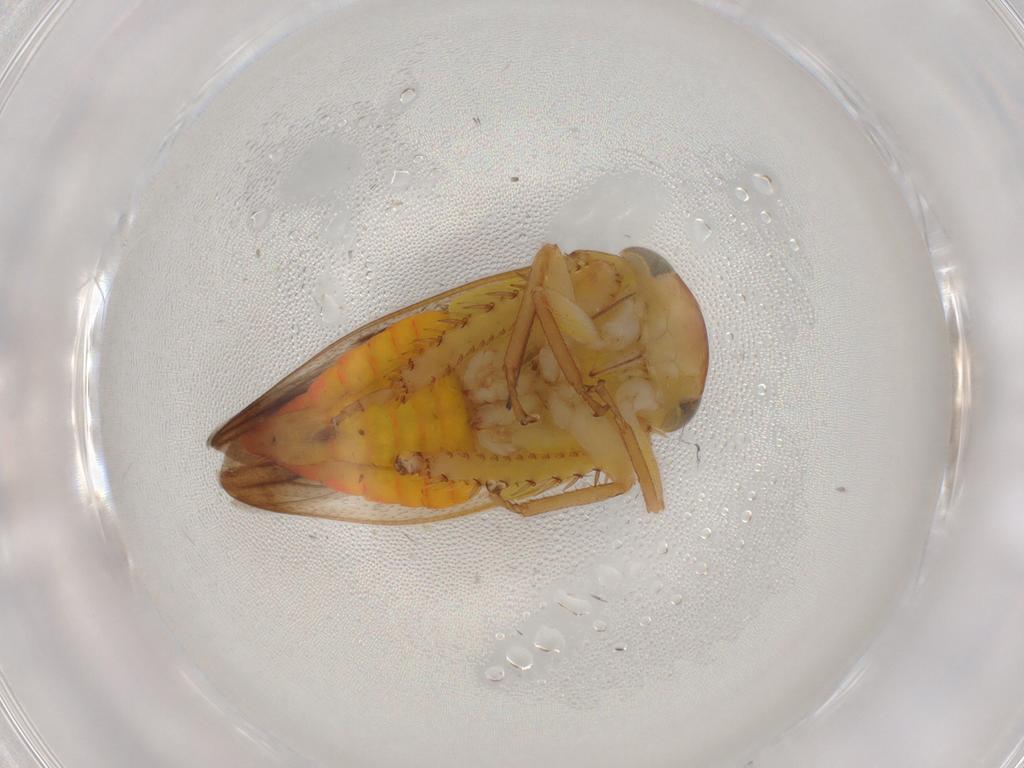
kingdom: Animalia
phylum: Arthropoda
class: Insecta
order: Hemiptera
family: Cicadellidae
